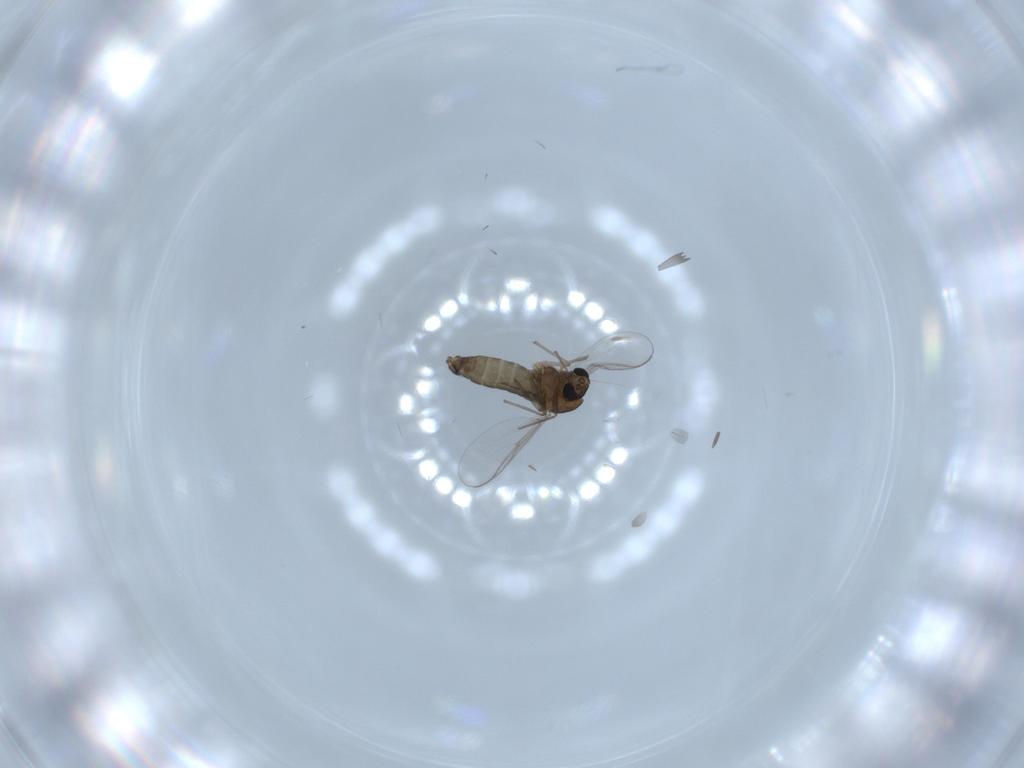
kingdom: Animalia
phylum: Arthropoda
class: Insecta
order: Diptera
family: Chironomidae
